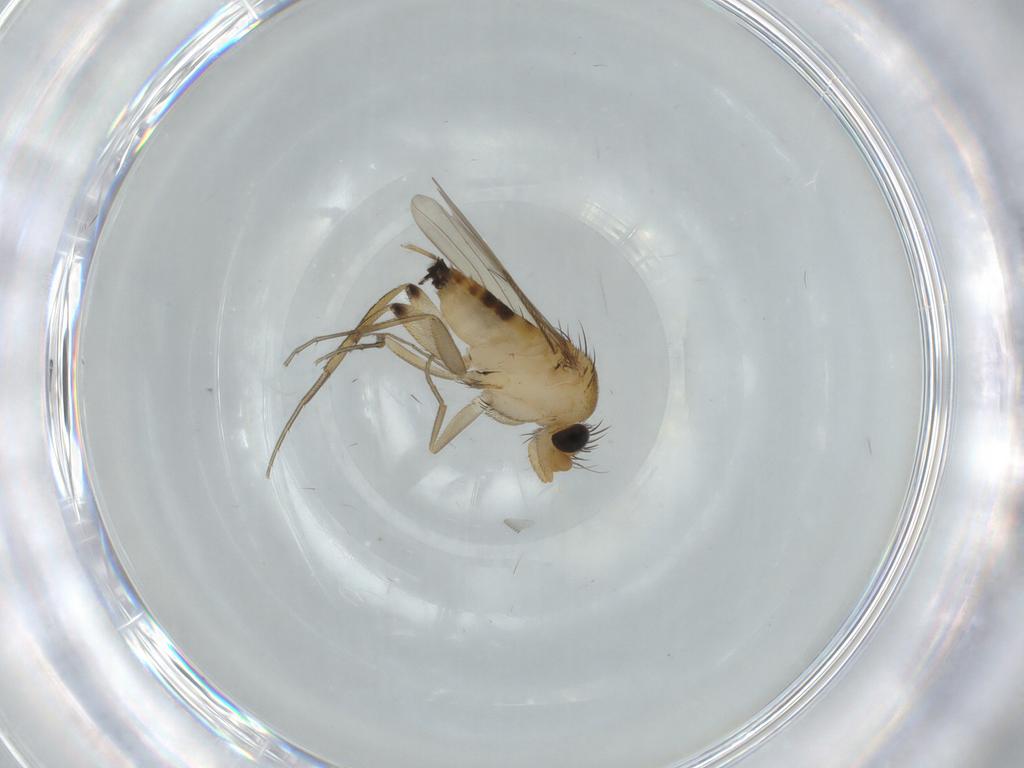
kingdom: Animalia
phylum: Arthropoda
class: Insecta
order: Diptera
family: Phoridae
